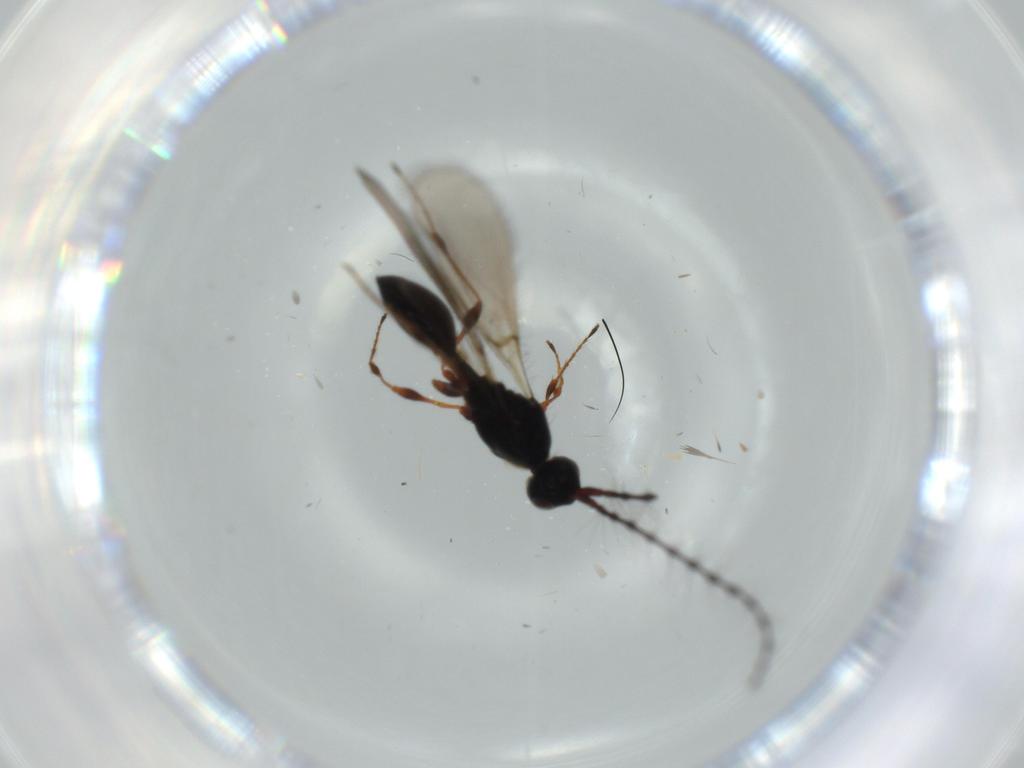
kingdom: Animalia
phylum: Arthropoda
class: Insecta
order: Hymenoptera
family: Diapriidae
